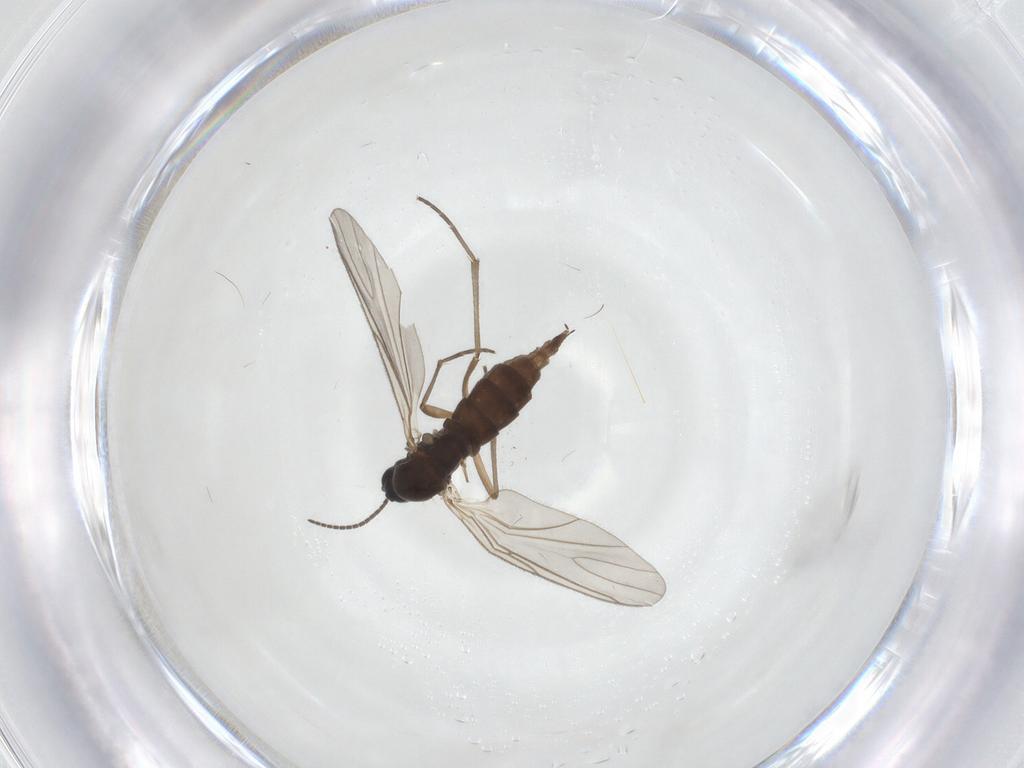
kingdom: Animalia
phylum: Arthropoda
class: Insecta
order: Diptera
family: Sciaridae
